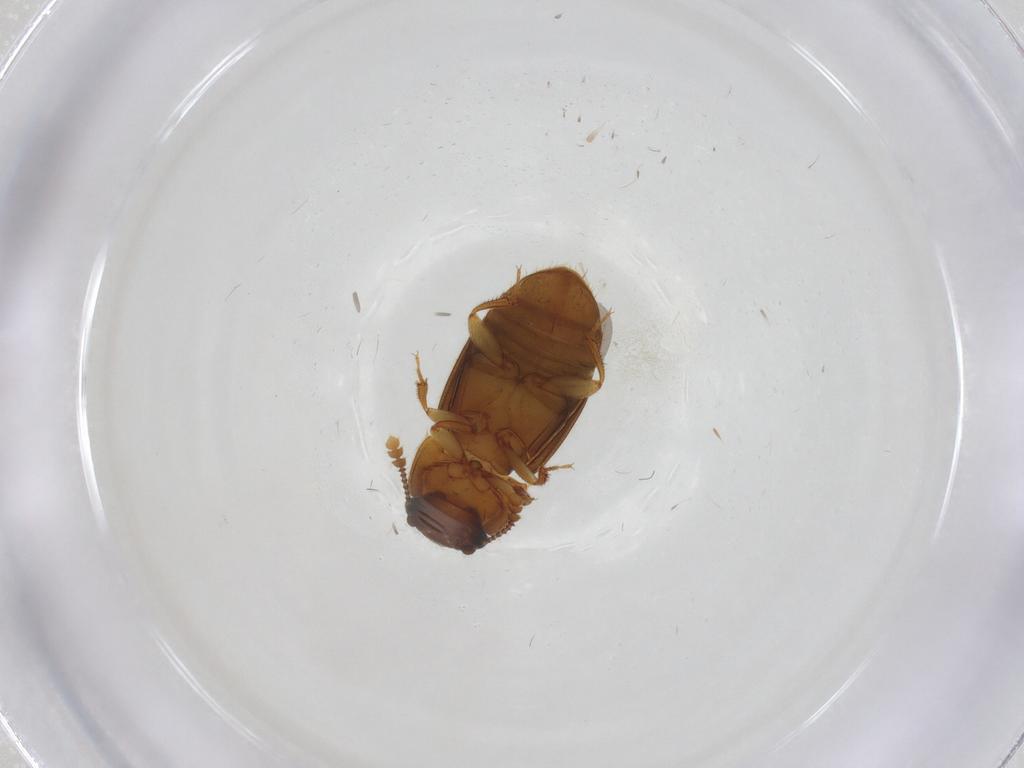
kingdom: Animalia
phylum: Arthropoda
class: Insecta
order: Coleoptera
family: Nitidulidae
